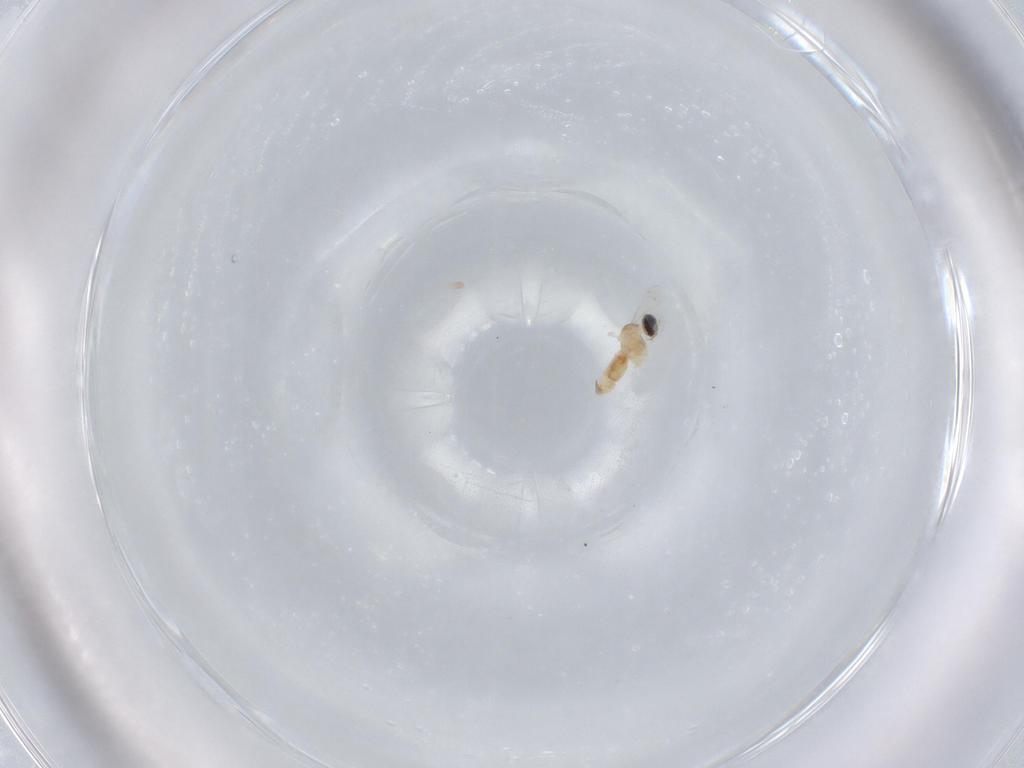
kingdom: Animalia
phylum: Arthropoda
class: Insecta
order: Diptera
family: Cecidomyiidae
